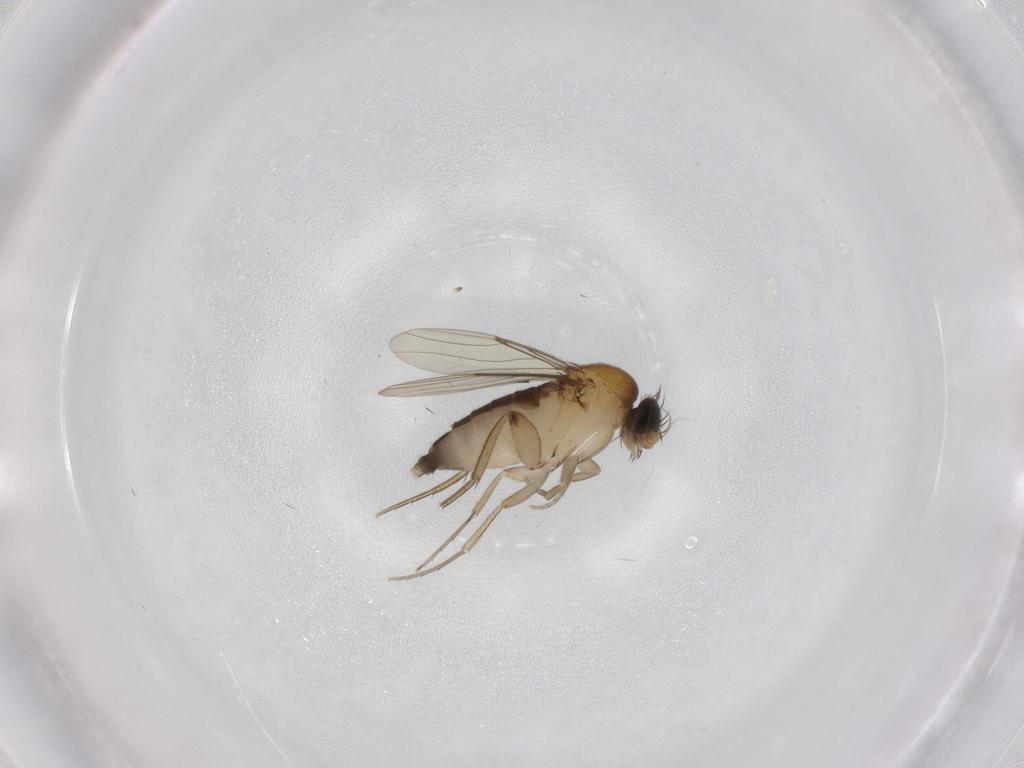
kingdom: Animalia
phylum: Arthropoda
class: Insecta
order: Diptera
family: Phoridae
